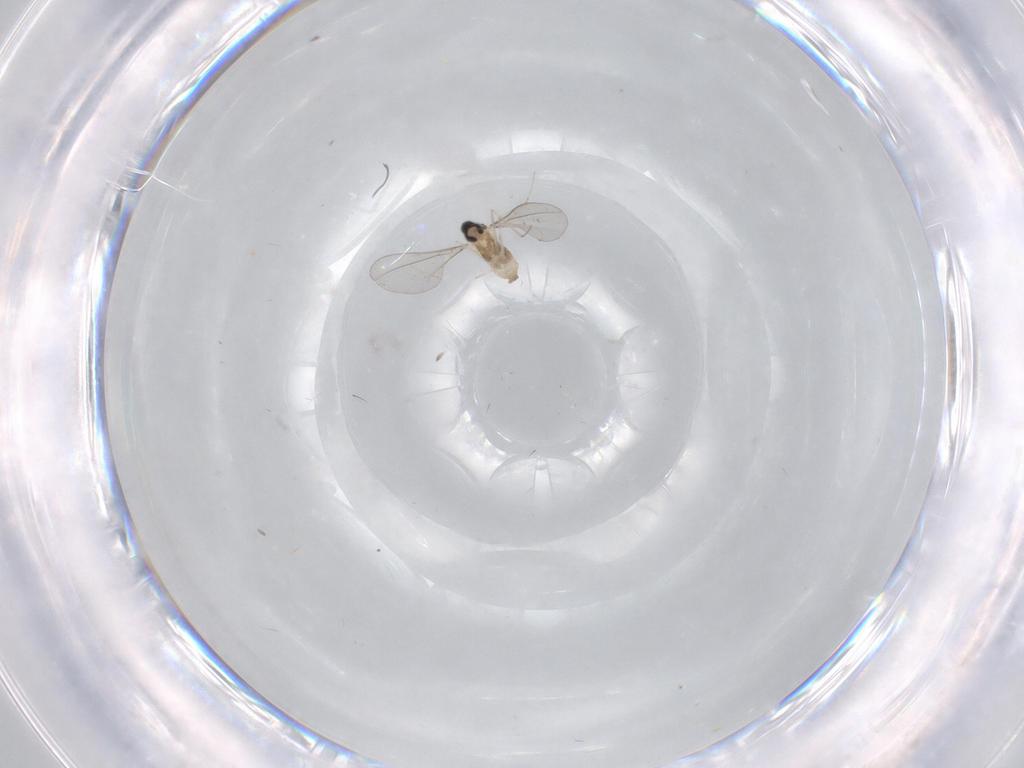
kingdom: Animalia
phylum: Arthropoda
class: Insecta
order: Diptera
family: Cecidomyiidae
